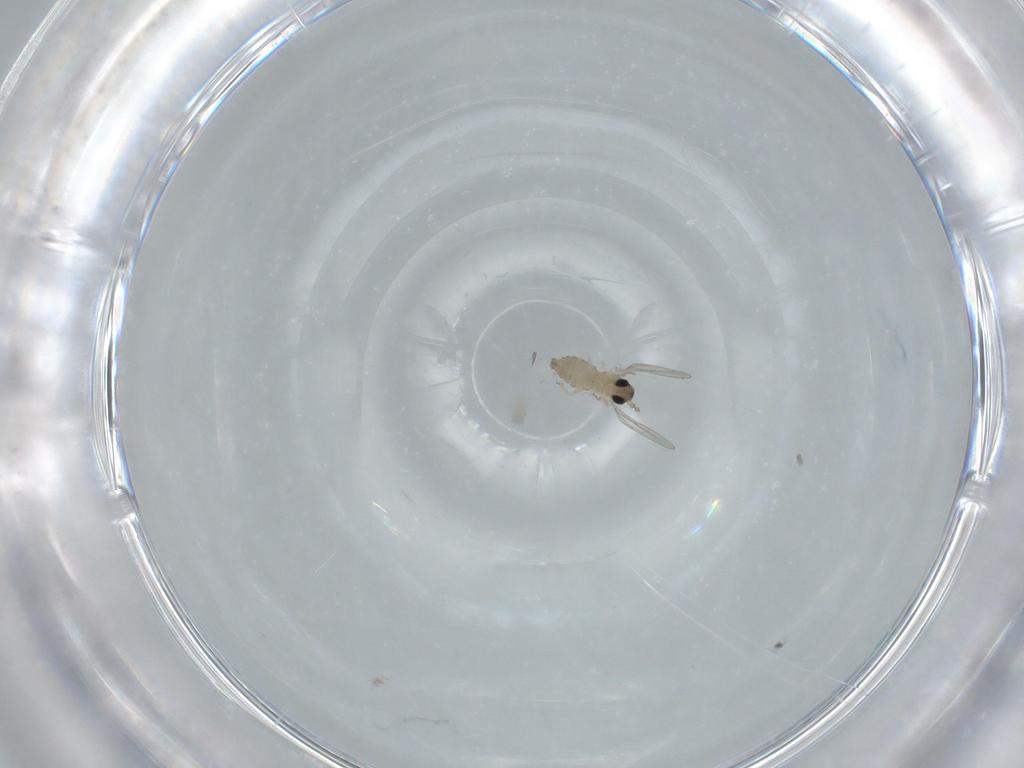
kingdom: Animalia
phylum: Arthropoda
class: Insecta
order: Diptera
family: Cecidomyiidae
